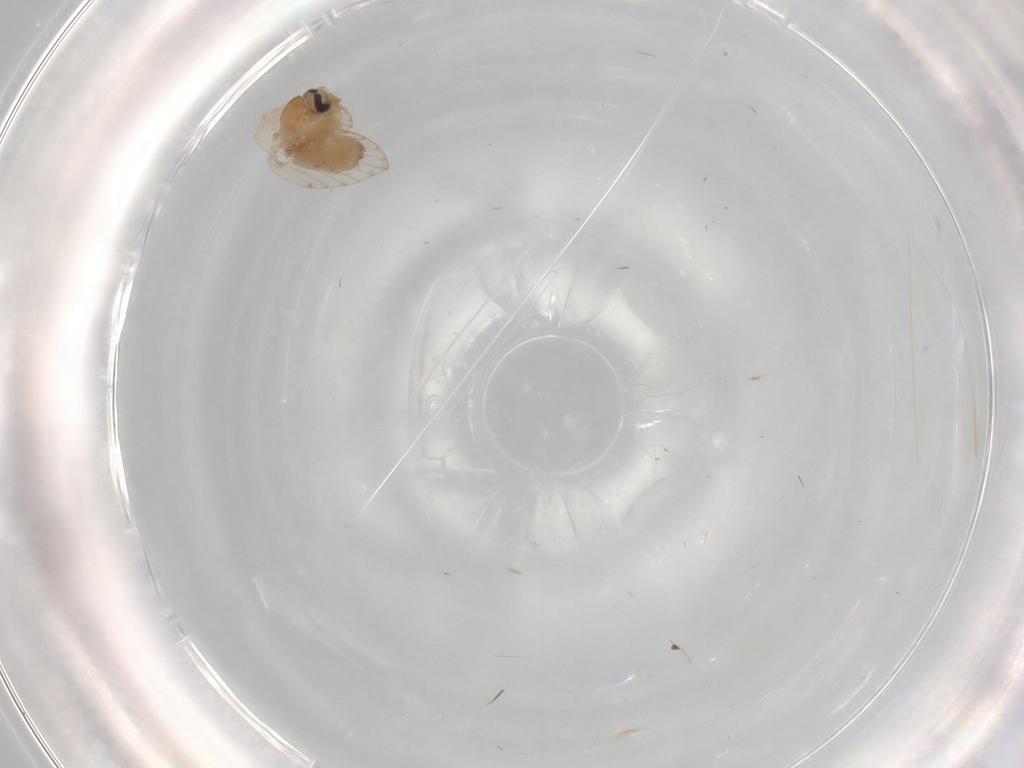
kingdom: Animalia
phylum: Arthropoda
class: Insecta
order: Diptera
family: Psychodidae
